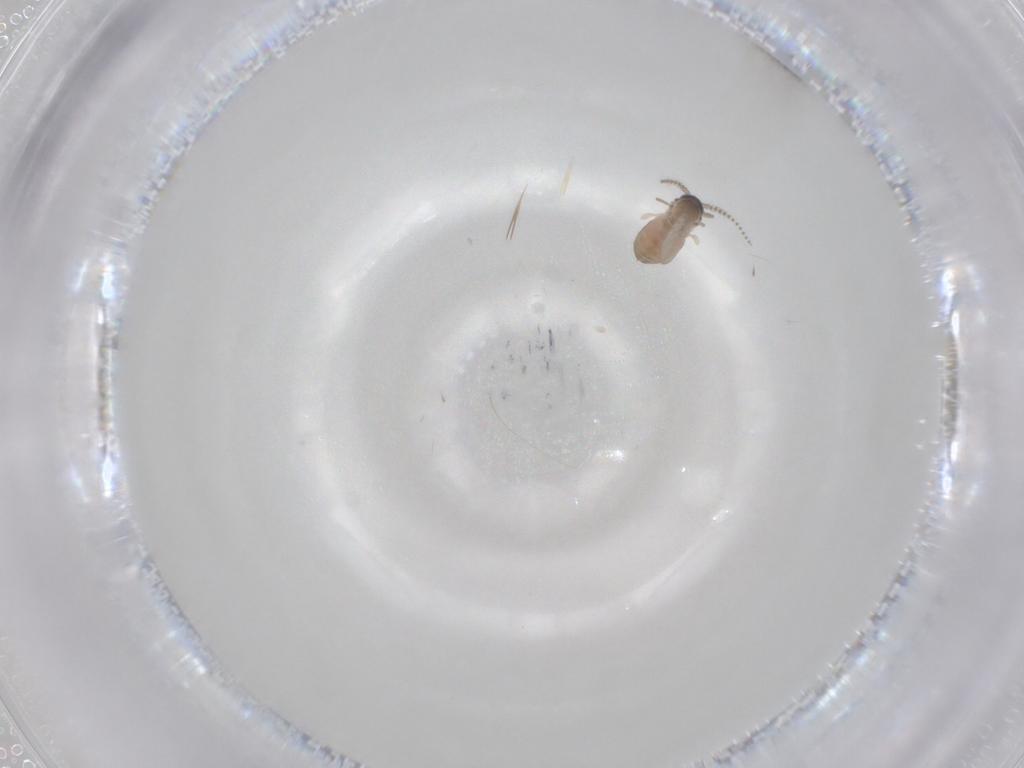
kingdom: Animalia
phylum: Arthropoda
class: Insecta
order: Diptera
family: Psychodidae
